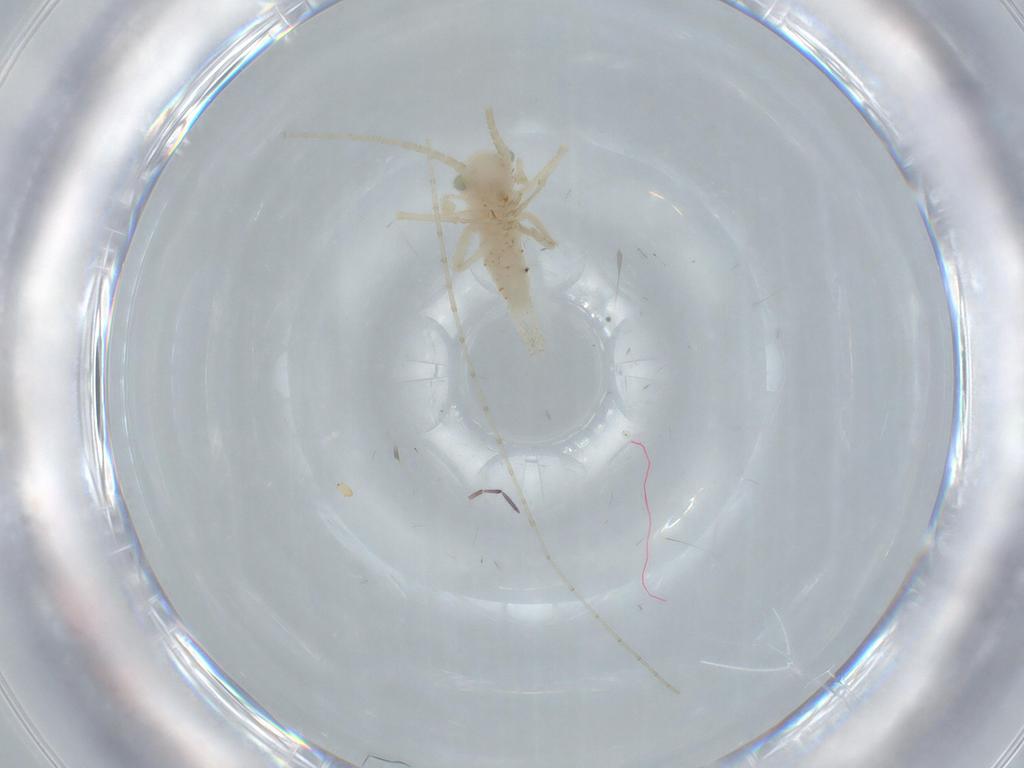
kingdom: Animalia
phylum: Arthropoda
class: Insecta
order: Orthoptera
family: Trigonidiidae
